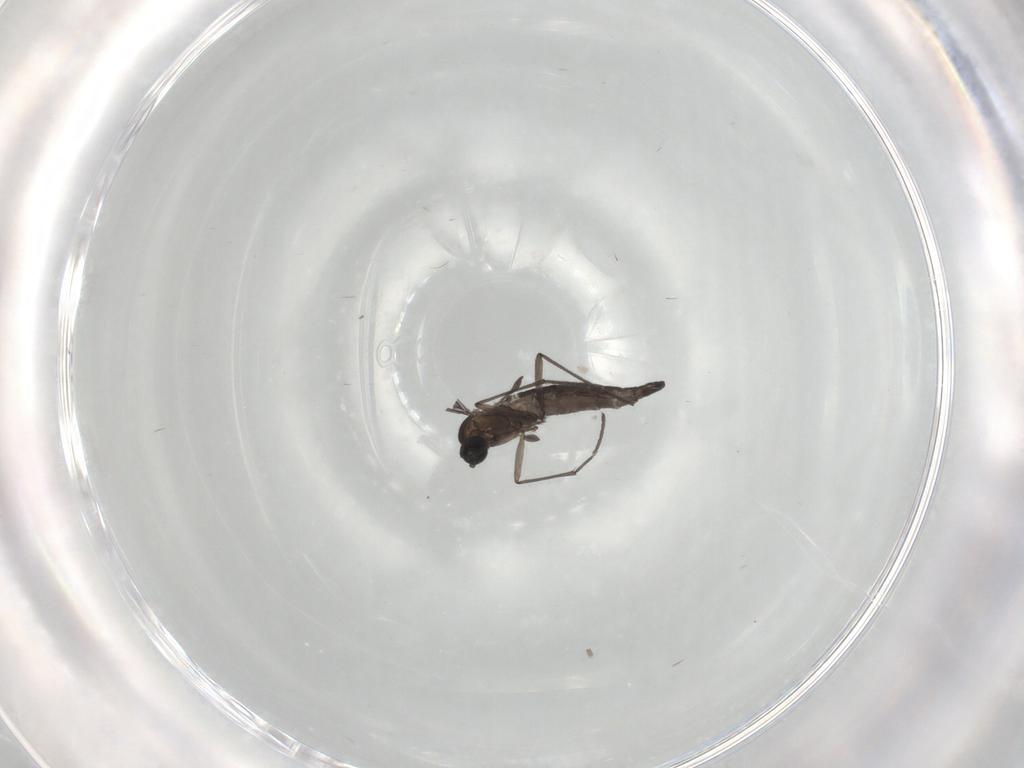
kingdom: Animalia
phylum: Arthropoda
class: Insecta
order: Diptera
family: Sciaridae
